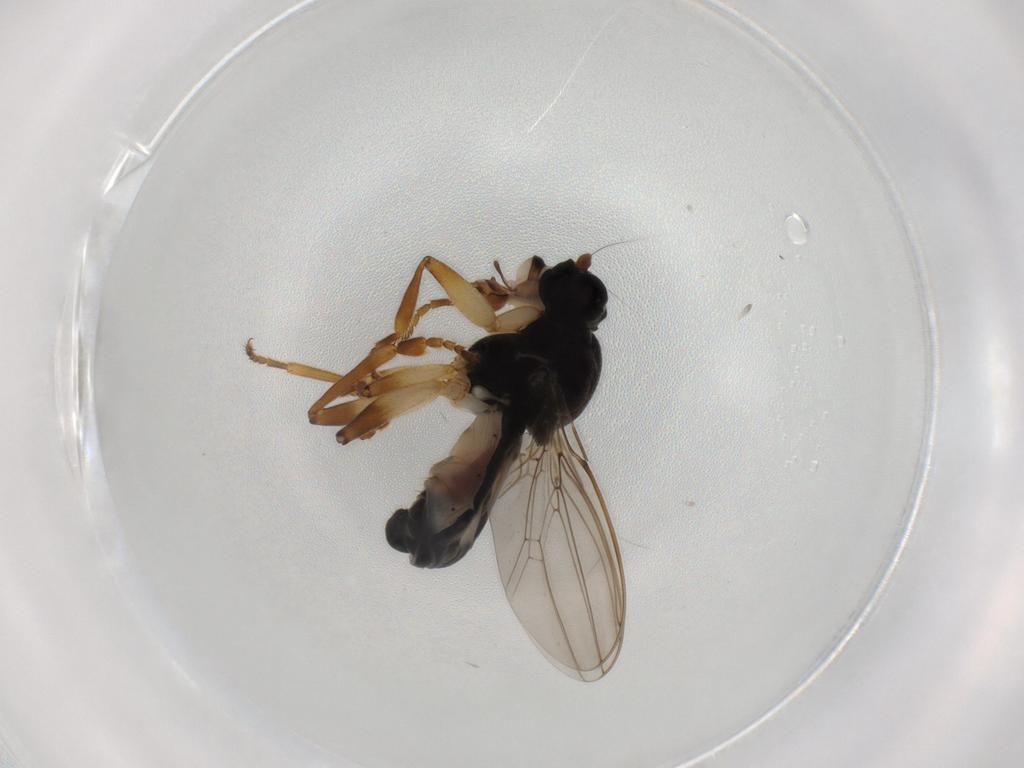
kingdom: Animalia
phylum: Arthropoda
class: Insecta
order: Diptera
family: Sphaeroceridae
